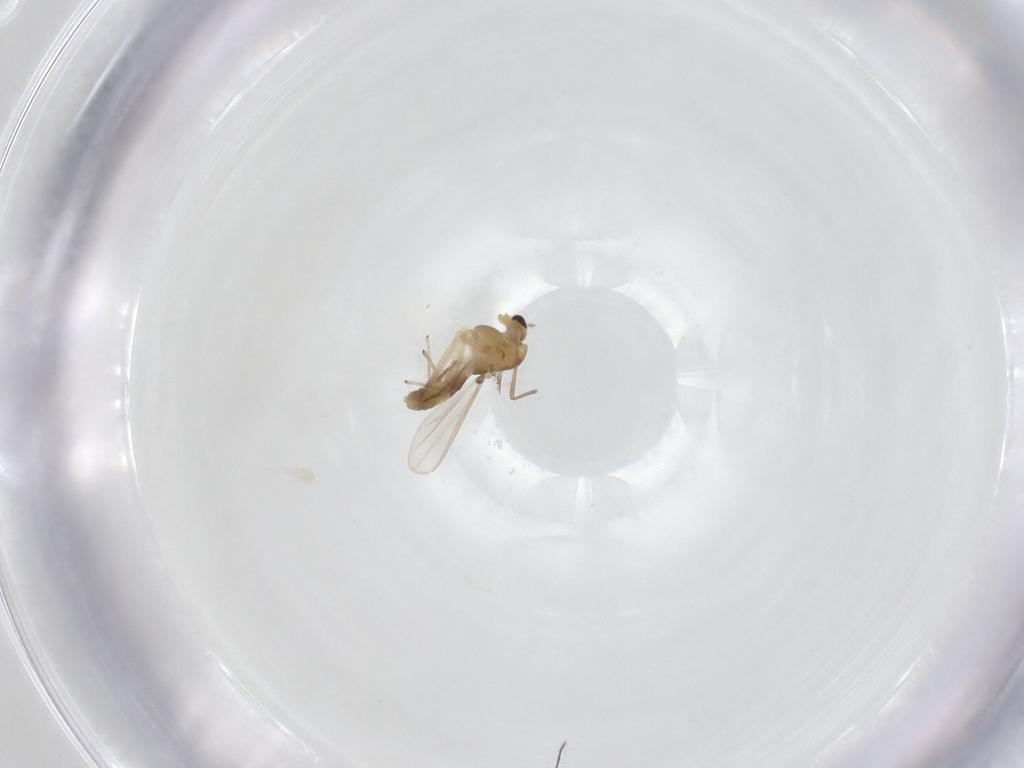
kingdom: Animalia
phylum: Arthropoda
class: Insecta
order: Diptera
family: Chironomidae
